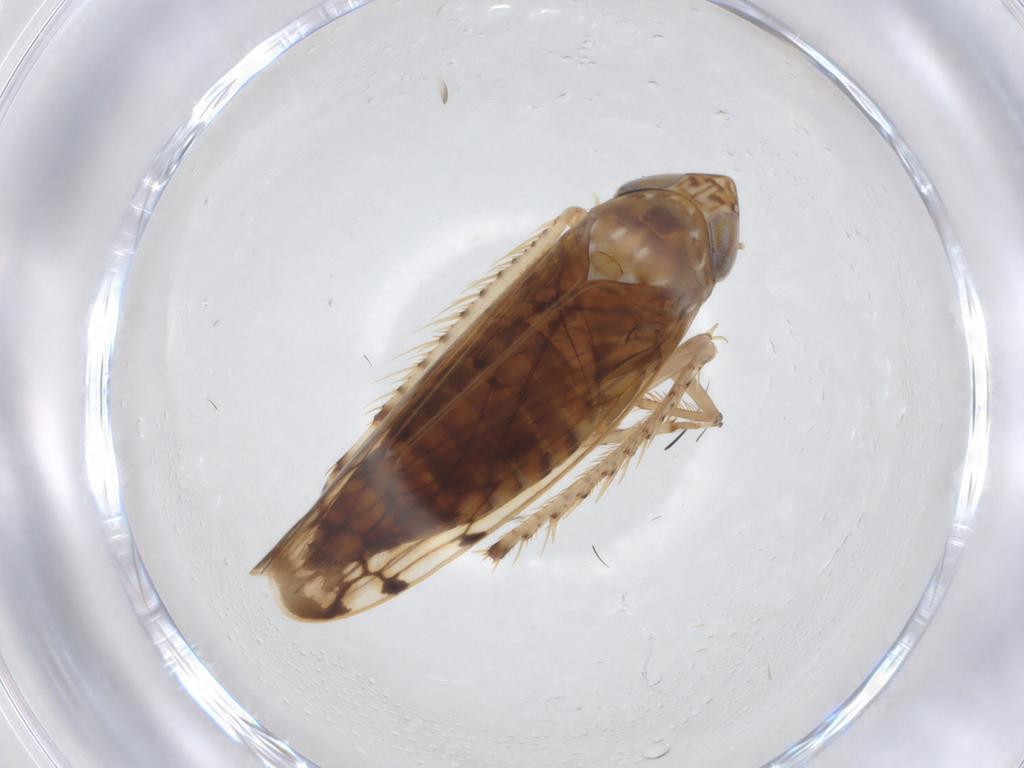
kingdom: Animalia
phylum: Arthropoda
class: Insecta
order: Hemiptera
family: Cicadellidae
